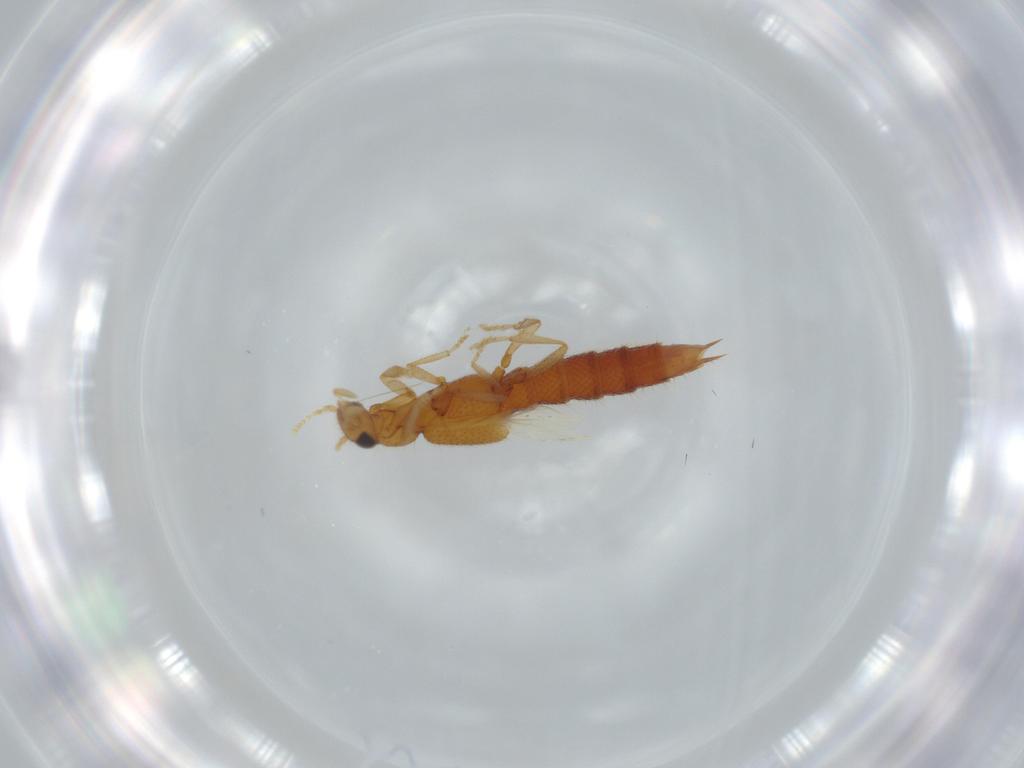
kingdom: Animalia
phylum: Arthropoda
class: Insecta
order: Coleoptera
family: Staphylinidae
